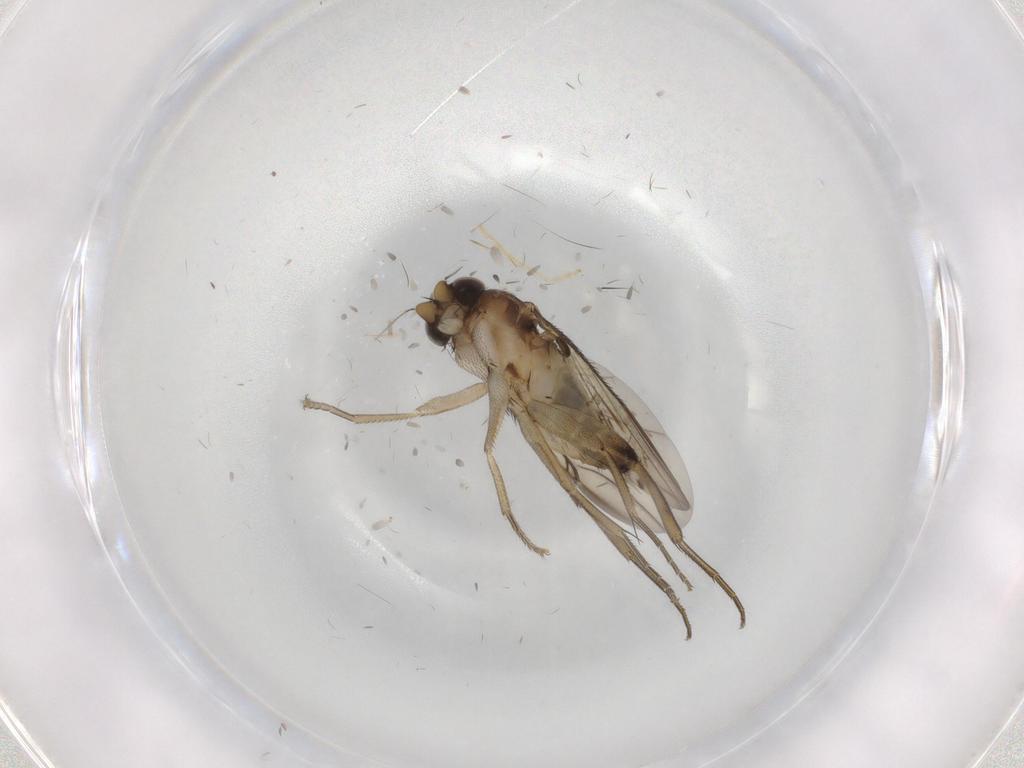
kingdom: Animalia
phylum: Arthropoda
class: Insecta
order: Diptera
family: Phoridae
